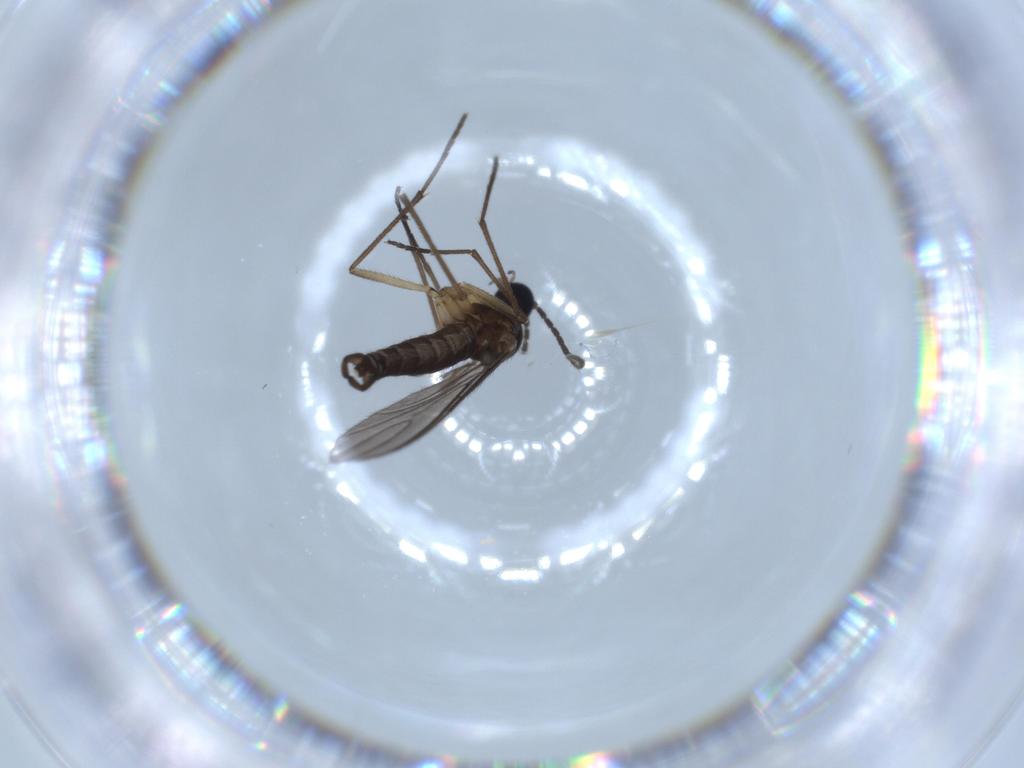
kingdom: Animalia
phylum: Arthropoda
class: Insecta
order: Diptera
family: Sciaridae
